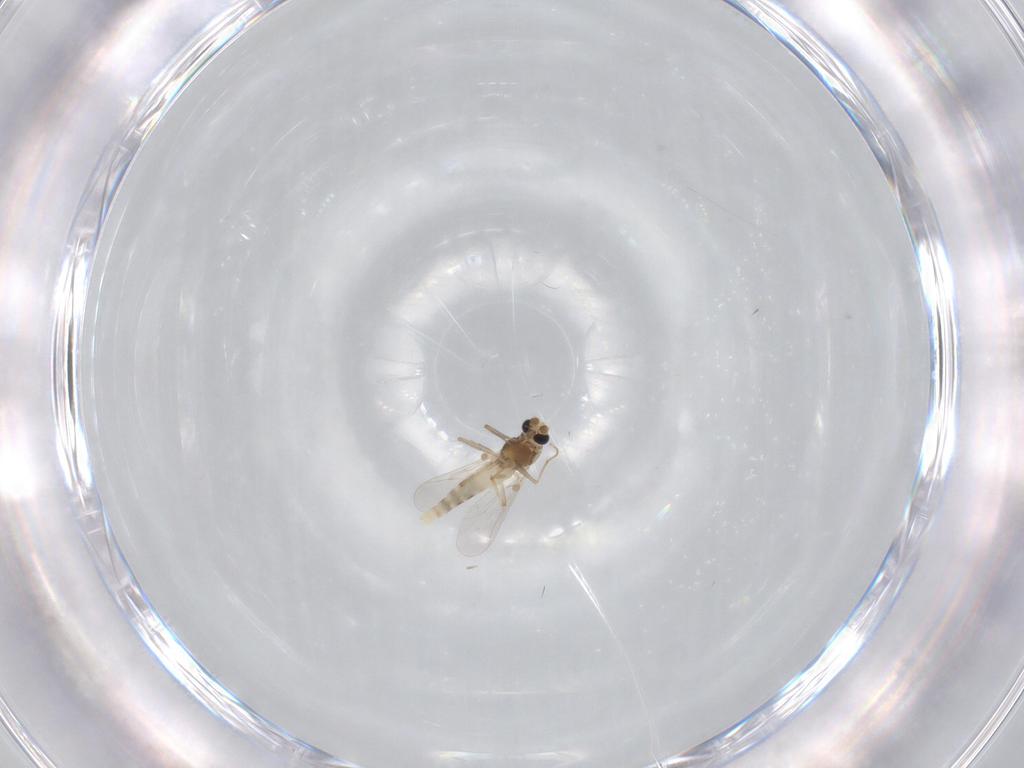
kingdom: Animalia
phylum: Arthropoda
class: Insecta
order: Diptera
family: Chironomidae
